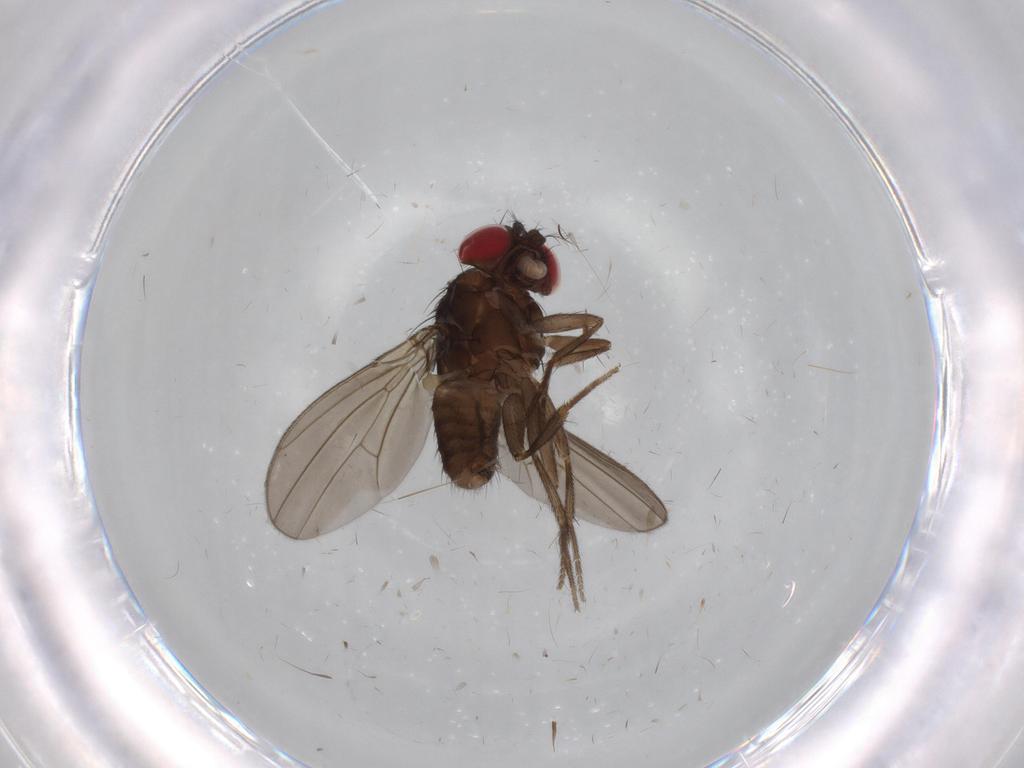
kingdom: Animalia
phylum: Arthropoda
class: Insecta
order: Diptera
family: Drosophilidae
